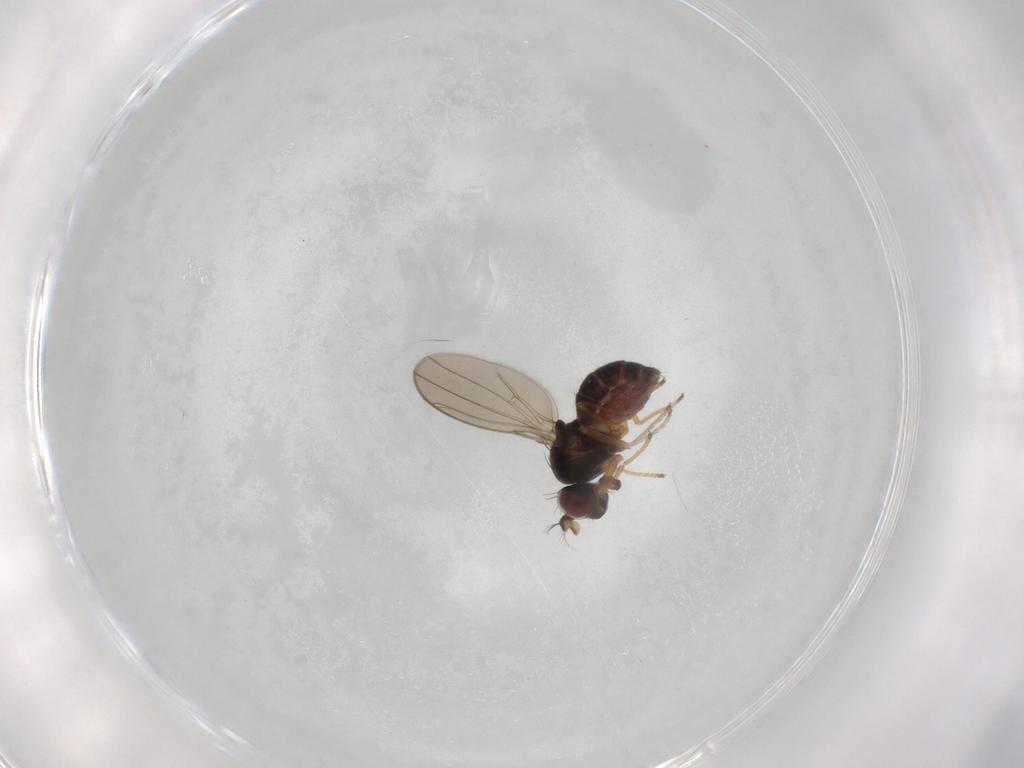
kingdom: Animalia
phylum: Arthropoda
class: Insecta
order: Diptera
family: Ephydridae
